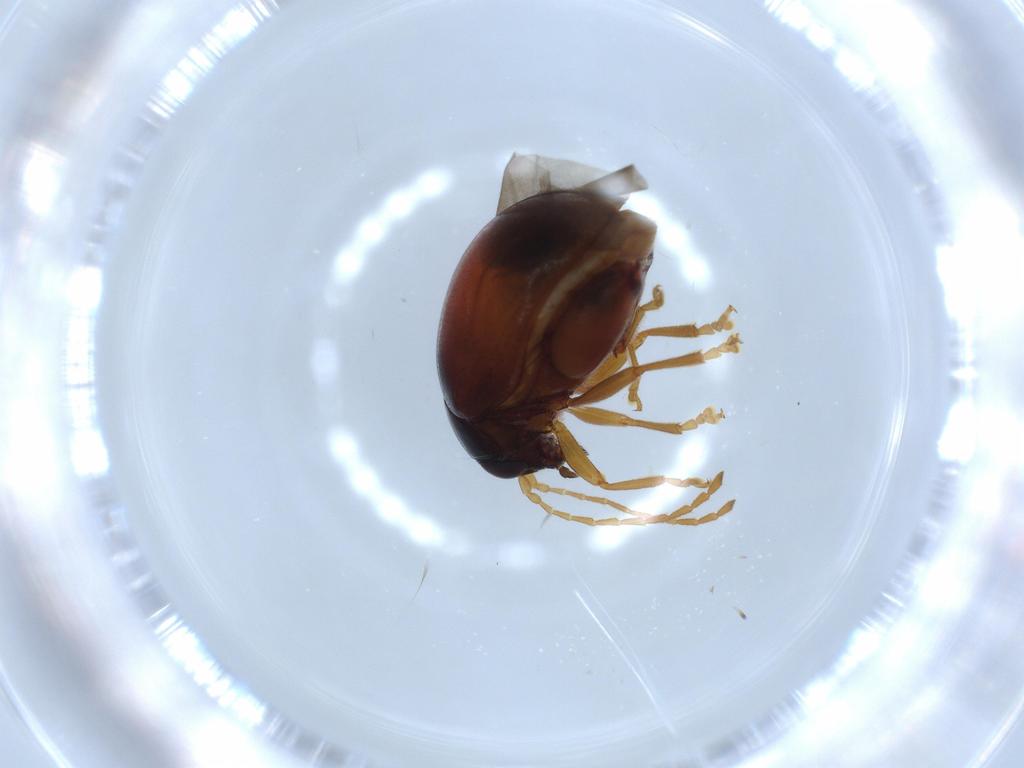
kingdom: Animalia
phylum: Arthropoda
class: Insecta
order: Coleoptera
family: Chrysomelidae
